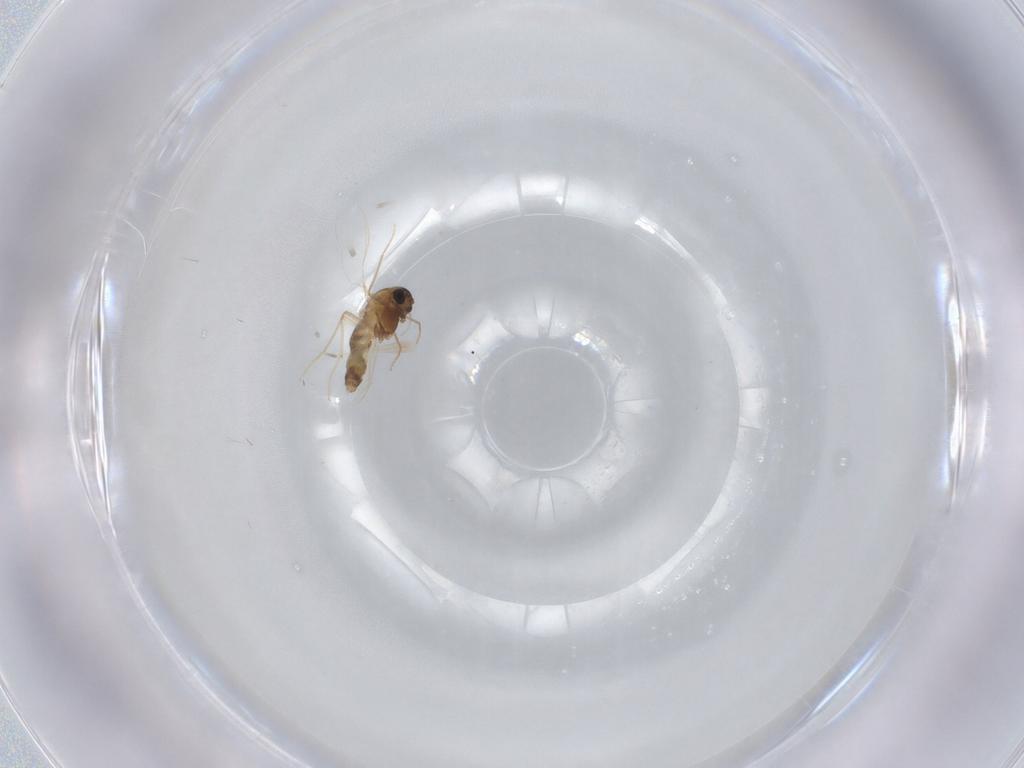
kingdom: Animalia
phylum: Arthropoda
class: Insecta
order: Diptera
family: Chironomidae
